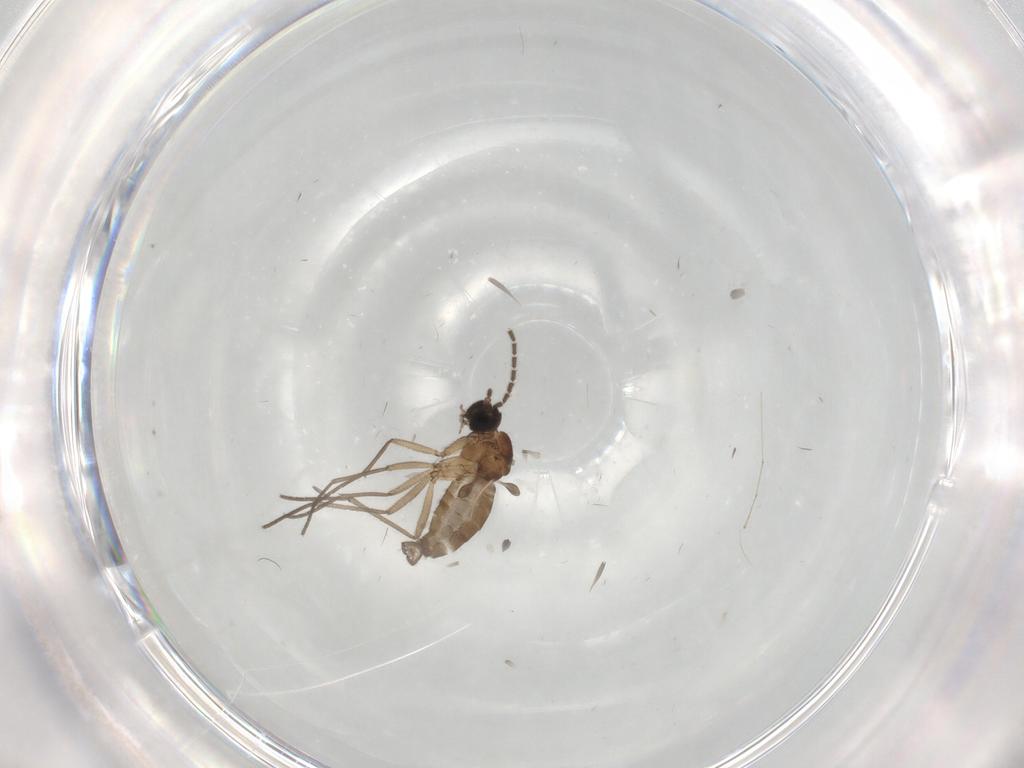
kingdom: Animalia
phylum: Arthropoda
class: Insecta
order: Diptera
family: Sciaridae
